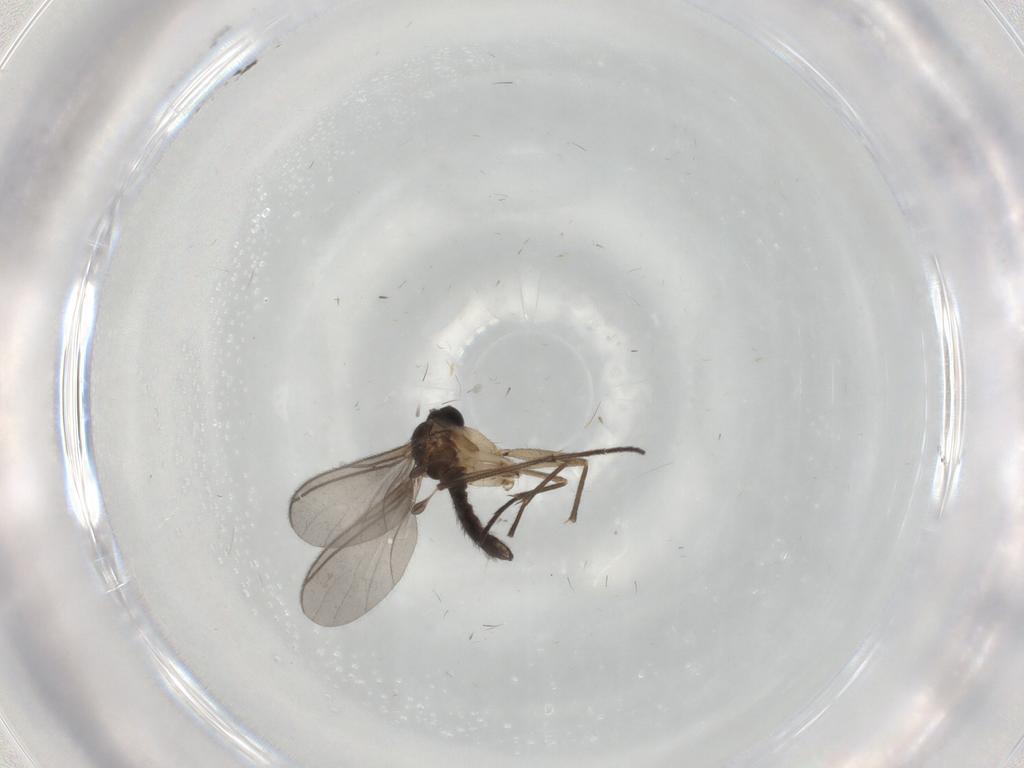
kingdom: Animalia
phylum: Arthropoda
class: Insecta
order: Diptera
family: Sciaridae
